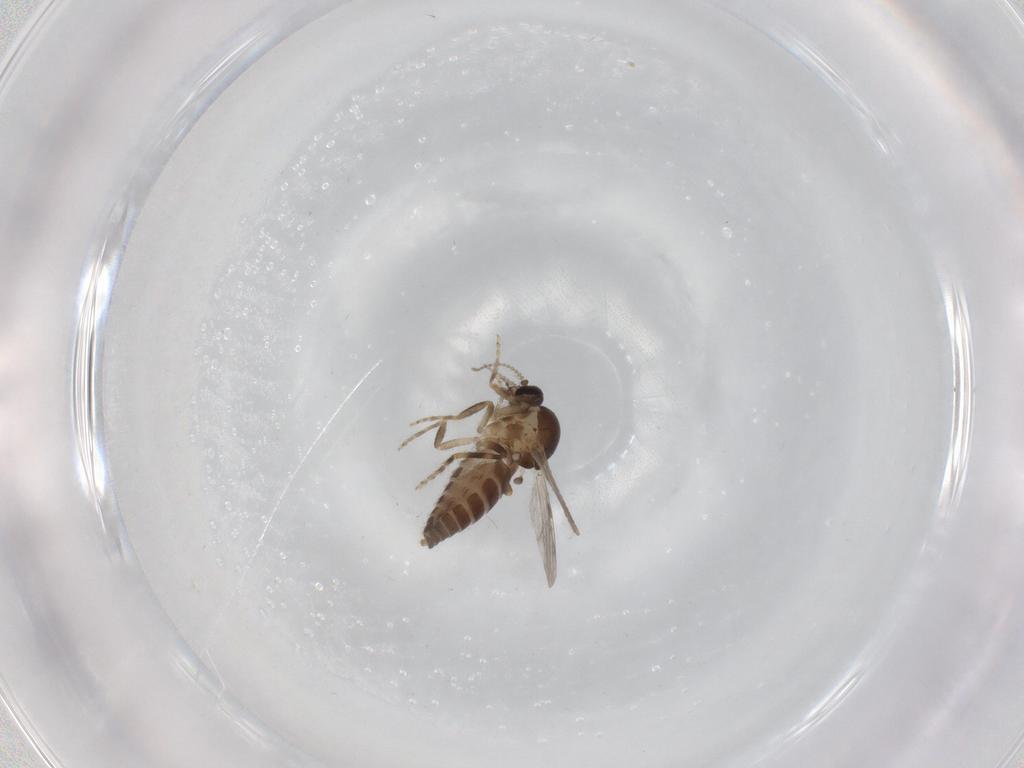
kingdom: Animalia
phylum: Arthropoda
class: Insecta
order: Diptera
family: Ceratopogonidae
